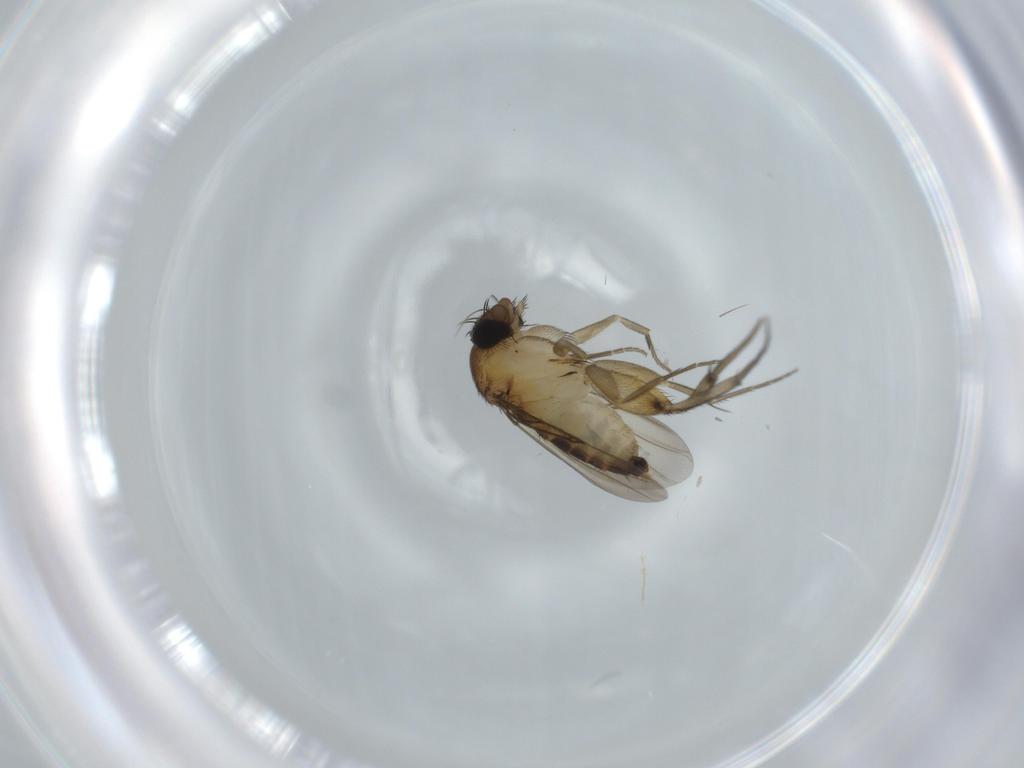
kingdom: Animalia
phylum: Arthropoda
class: Insecta
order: Diptera
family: Phoridae
